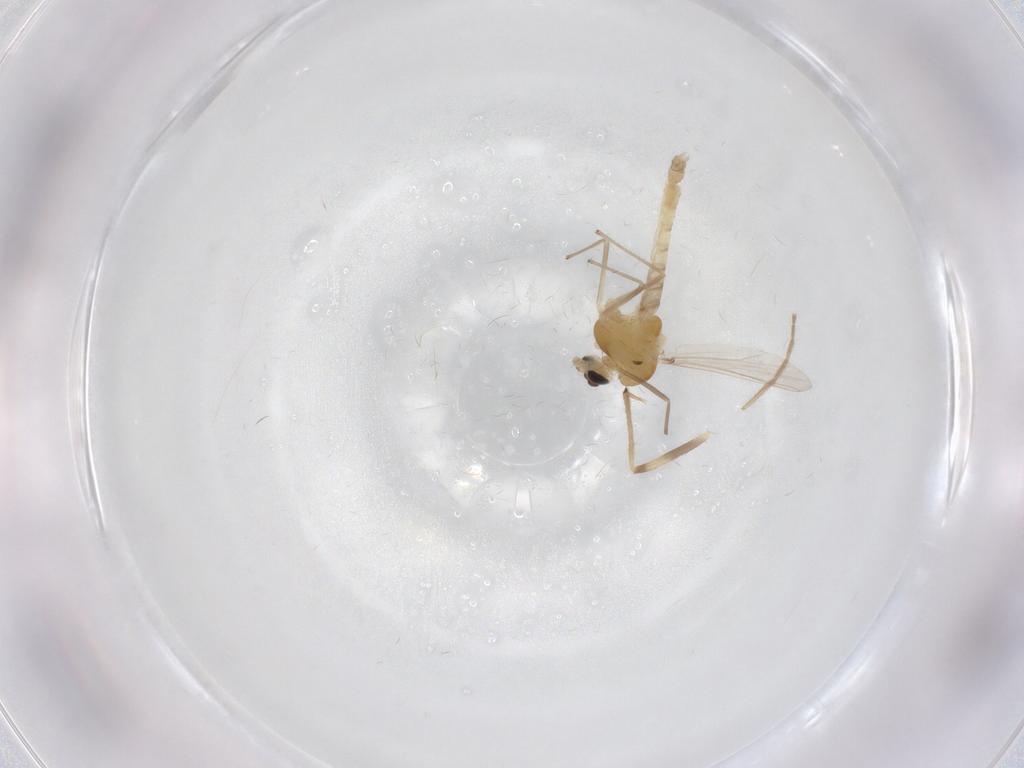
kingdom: Animalia
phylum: Arthropoda
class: Insecta
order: Diptera
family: Chironomidae
